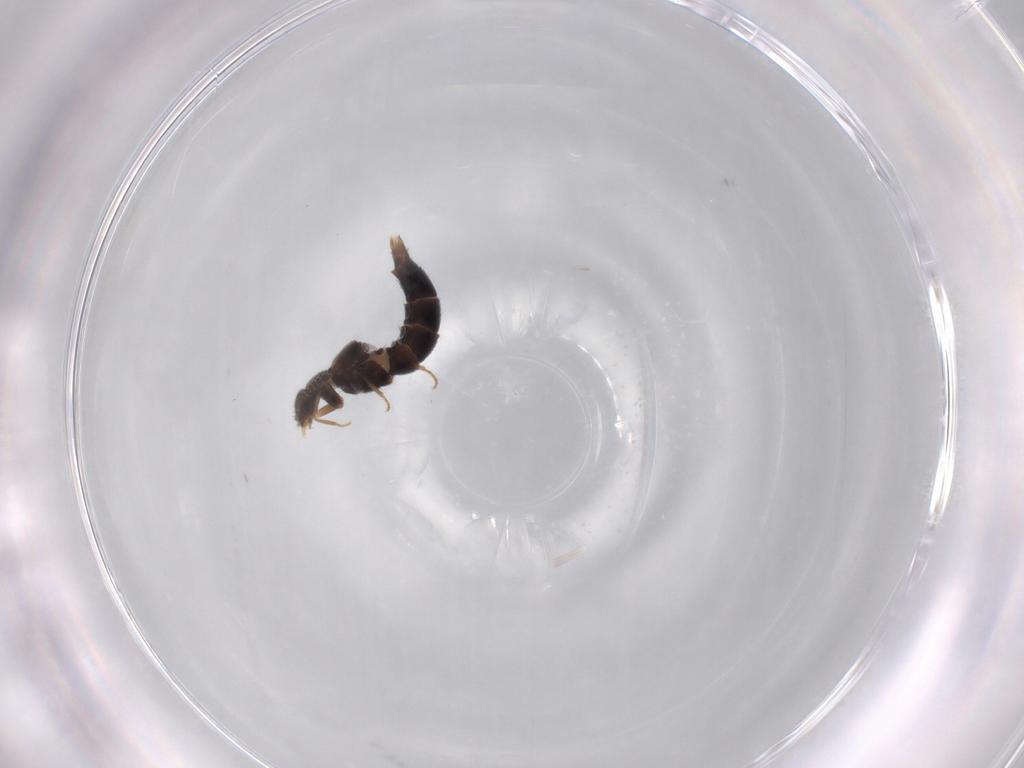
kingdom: Animalia
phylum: Arthropoda
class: Insecta
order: Coleoptera
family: Staphylinidae
